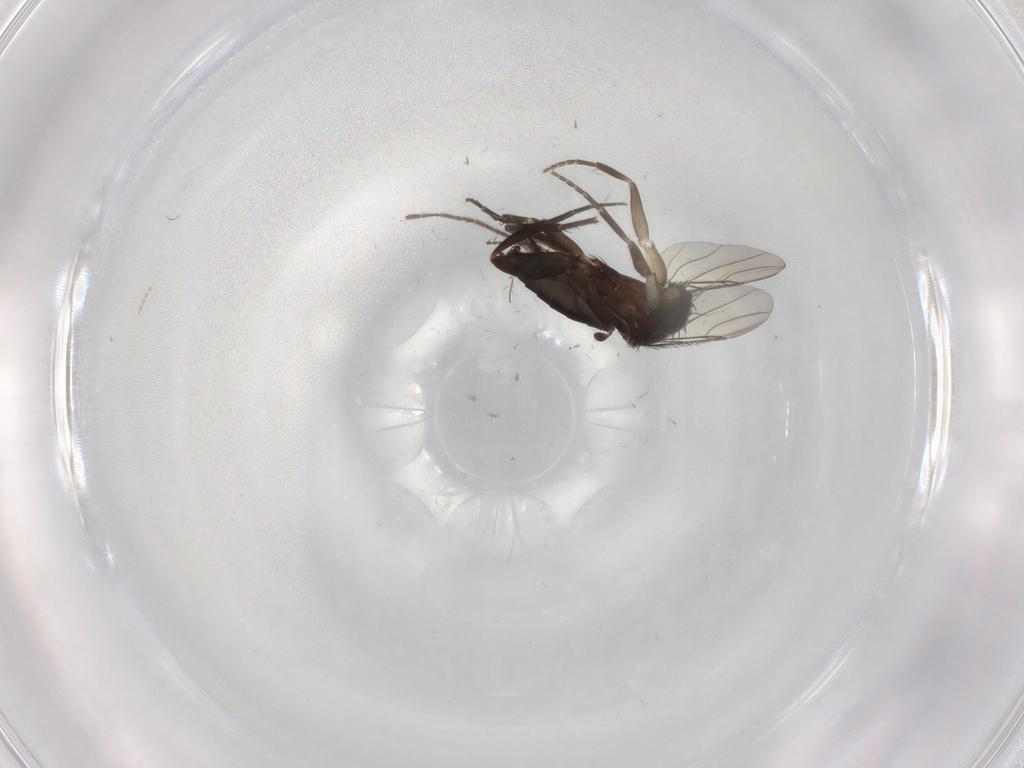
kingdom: Animalia
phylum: Arthropoda
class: Insecta
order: Diptera
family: Phoridae
